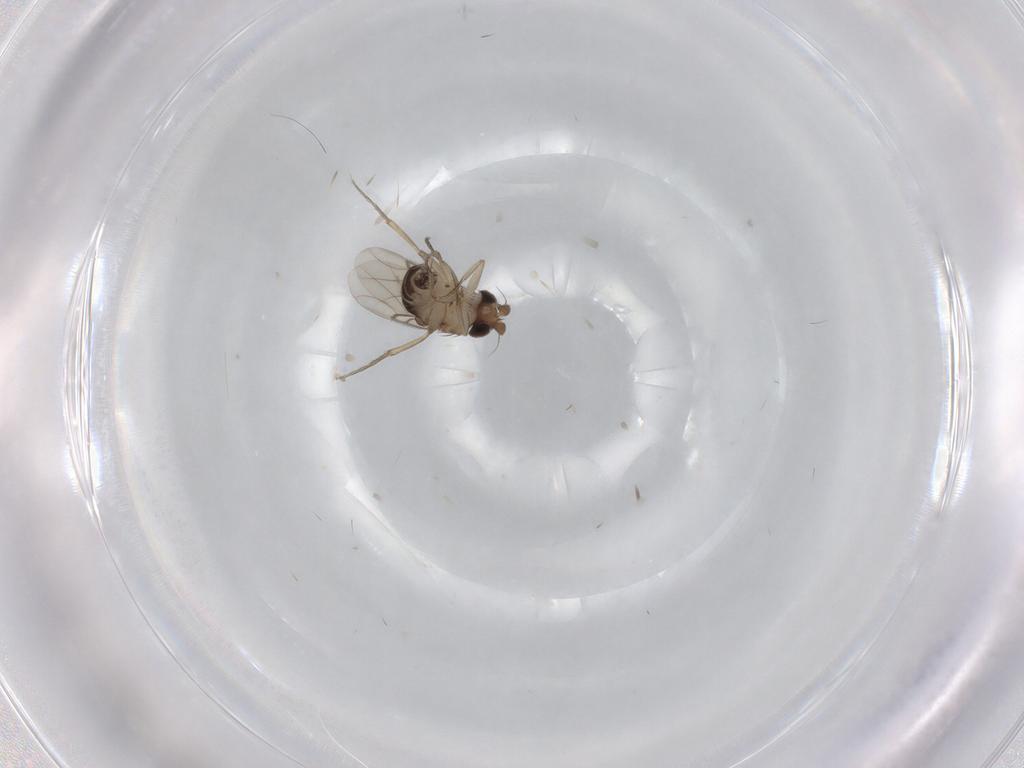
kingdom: Animalia
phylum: Arthropoda
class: Insecta
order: Diptera
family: Phoridae
